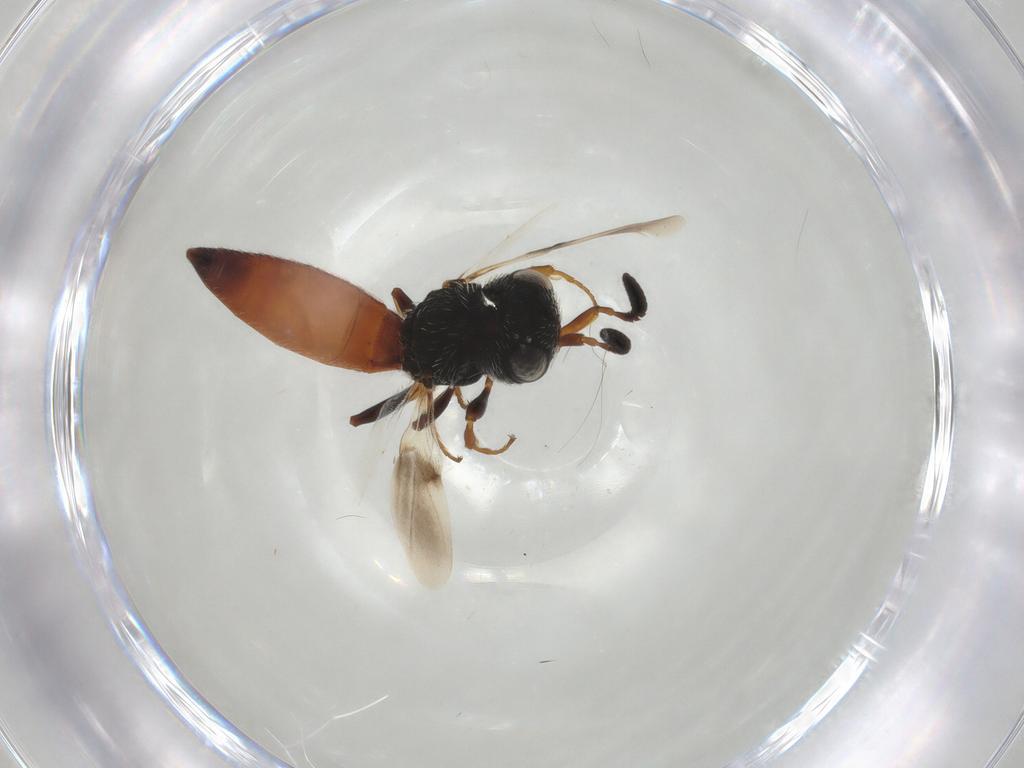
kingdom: Animalia
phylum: Arthropoda
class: Insecta
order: Hymenoptera
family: Scelionidae
